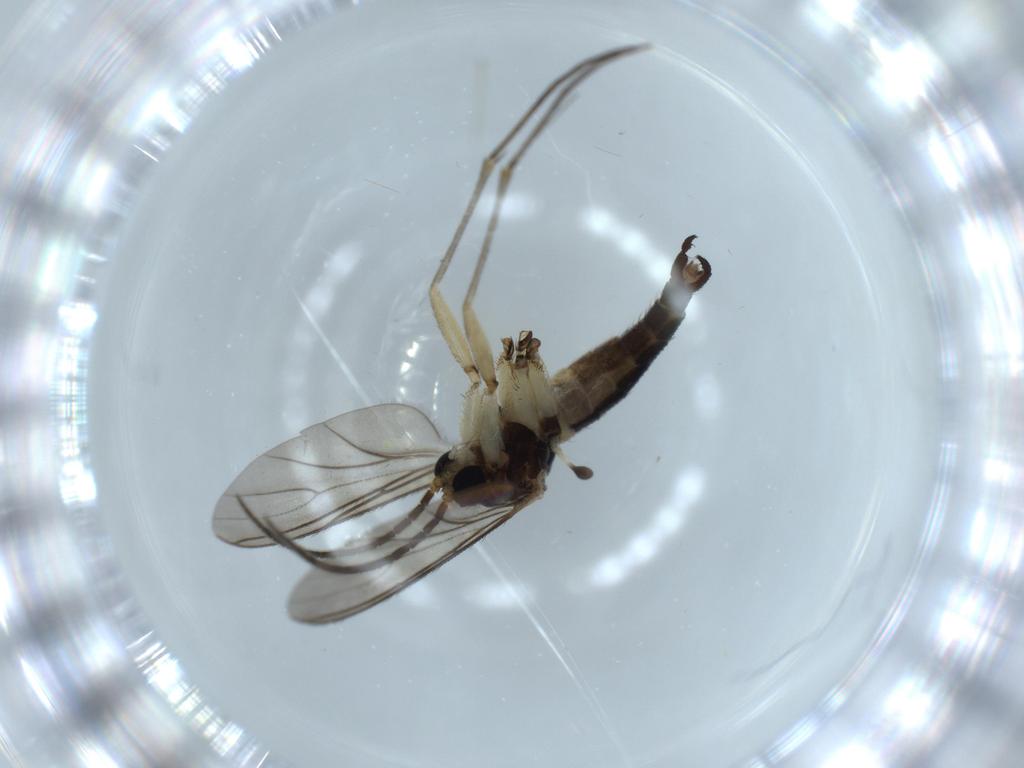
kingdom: Animalia
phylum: Arthropoda
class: Insecta
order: Diptera
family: Sciaridae
